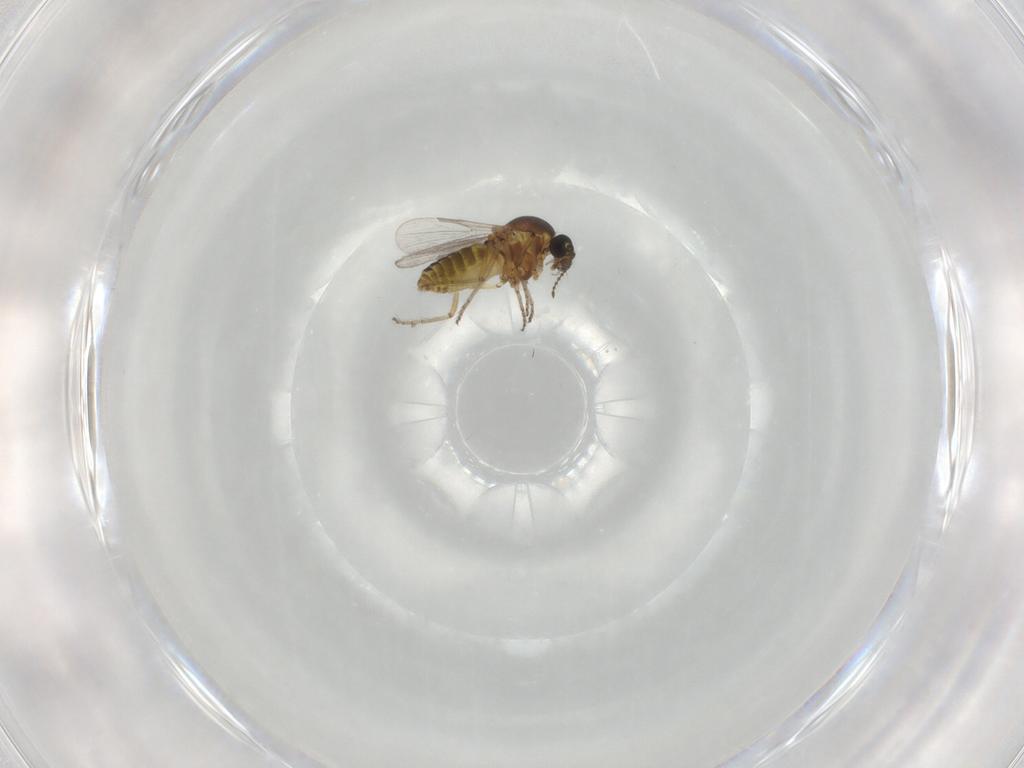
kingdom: Animalia
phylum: Arthropoda
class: Insecta
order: Diptera
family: Ceratopogonidae
